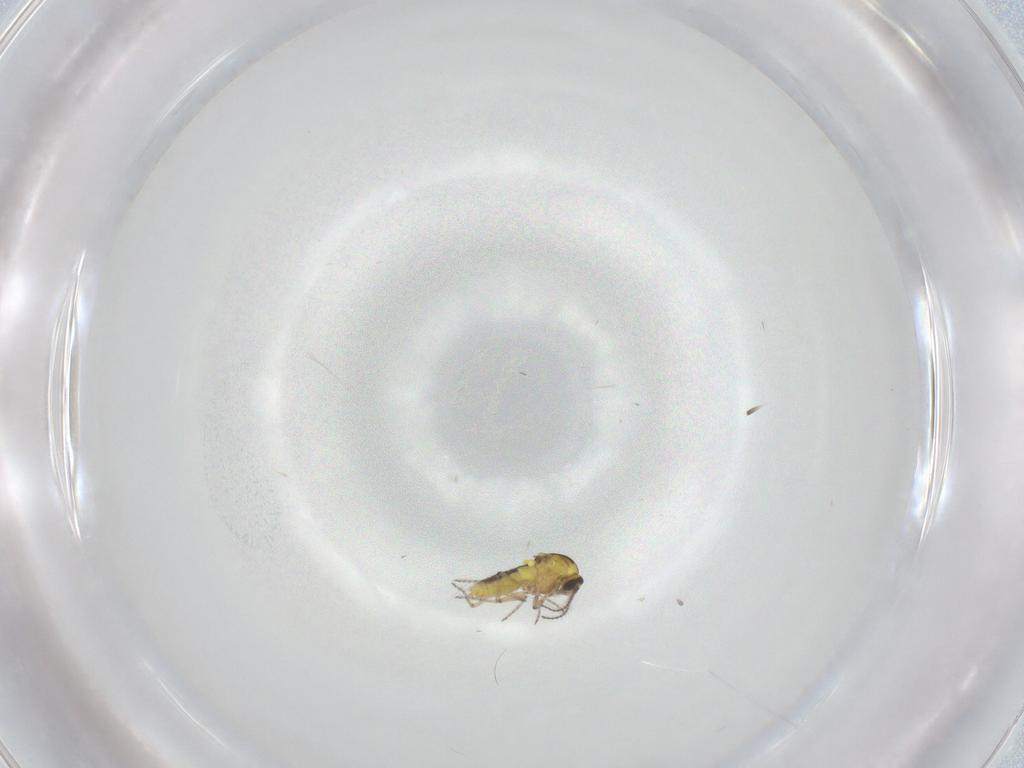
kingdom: Animalia
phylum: Arthropoda
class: Insecta
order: Diptera
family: Ceratopogonidae
